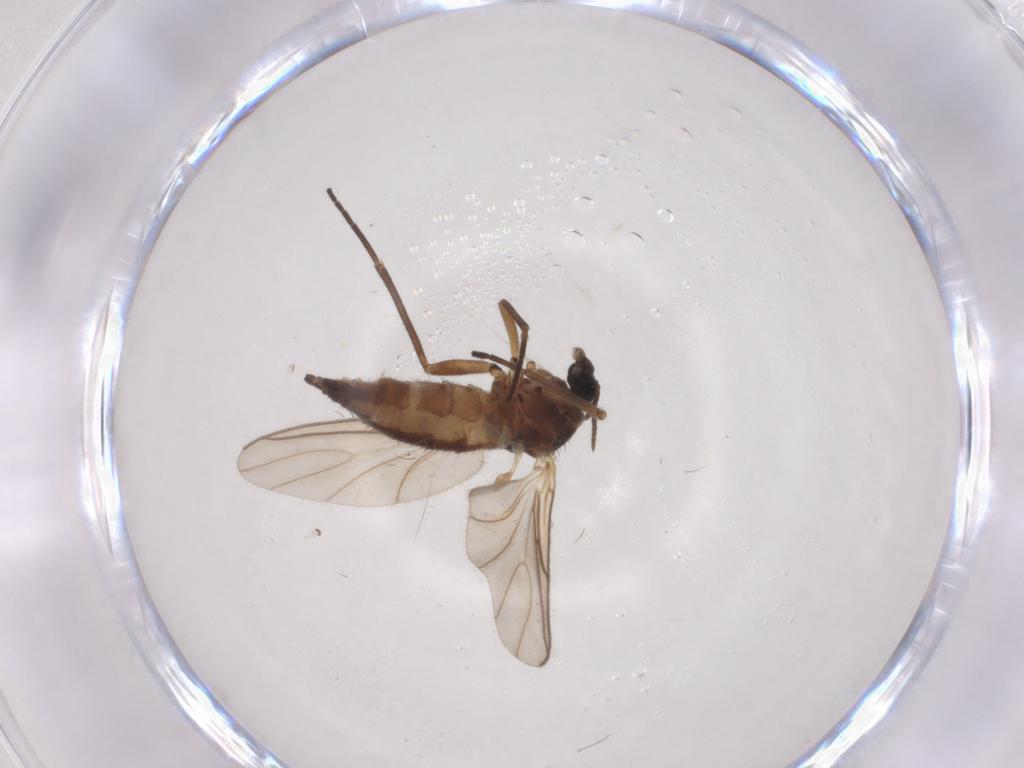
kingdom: Animalia
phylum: Arthropoda
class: Insecta
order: Diptera
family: Sciaridae
